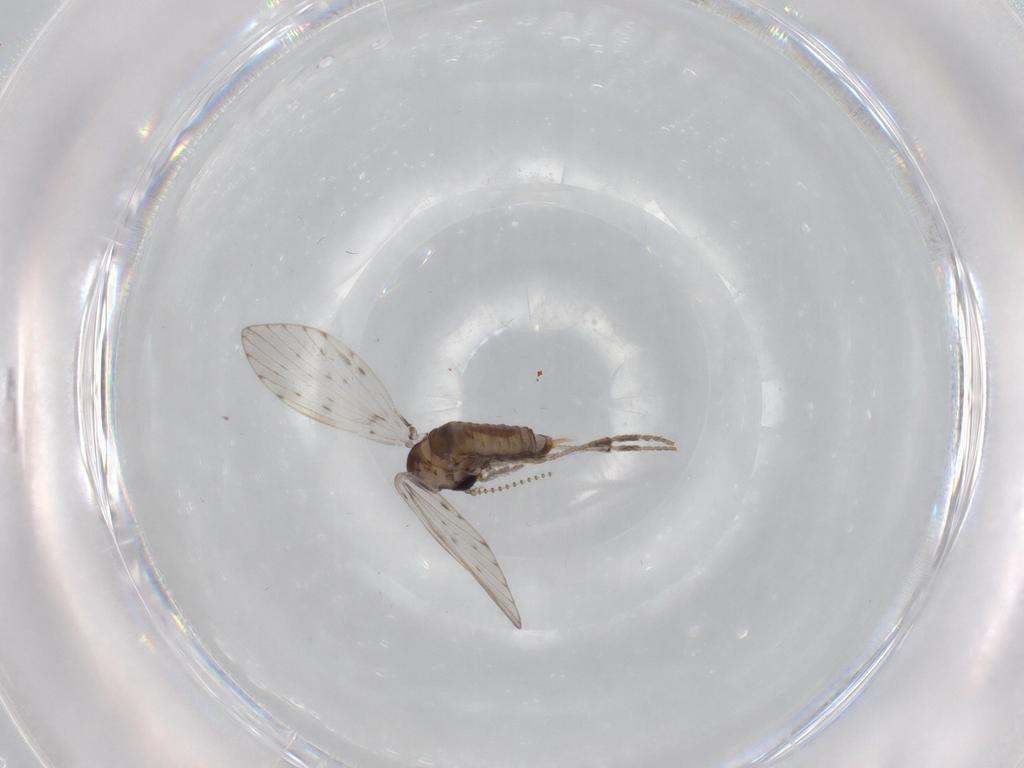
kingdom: Animalia
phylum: Arthropoda
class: Insecta
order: Diptera
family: Psychodidae
